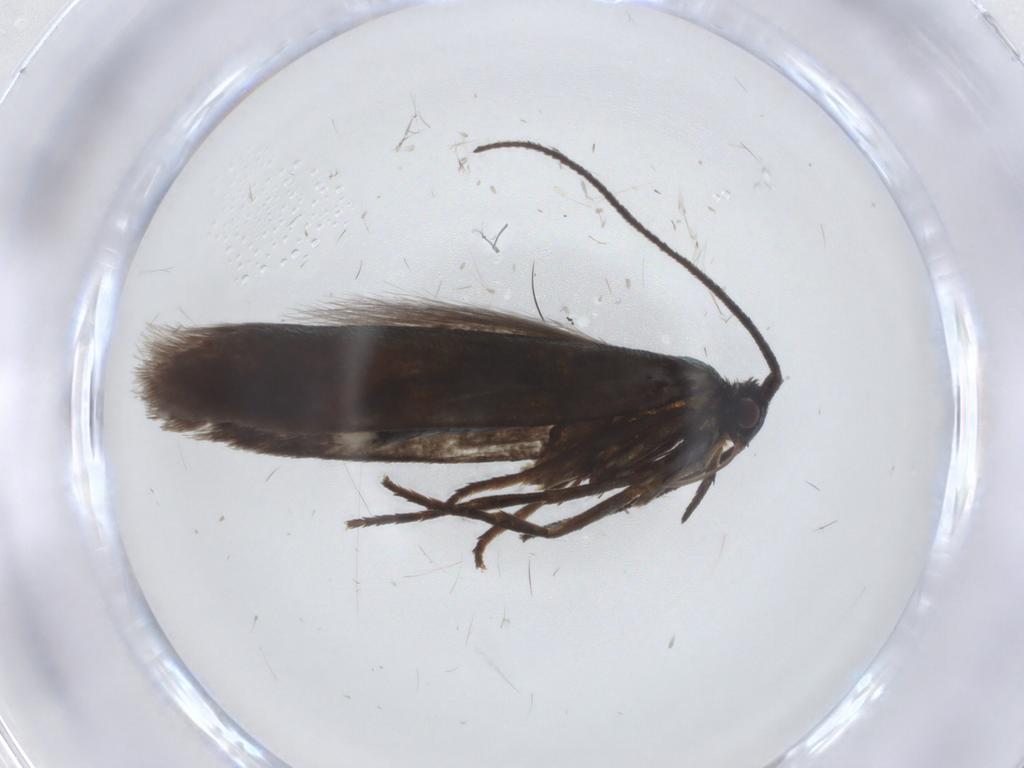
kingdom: Animalia
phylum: Arthropoda
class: Insecta
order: Lepidoptera
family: Argyresthiidae
